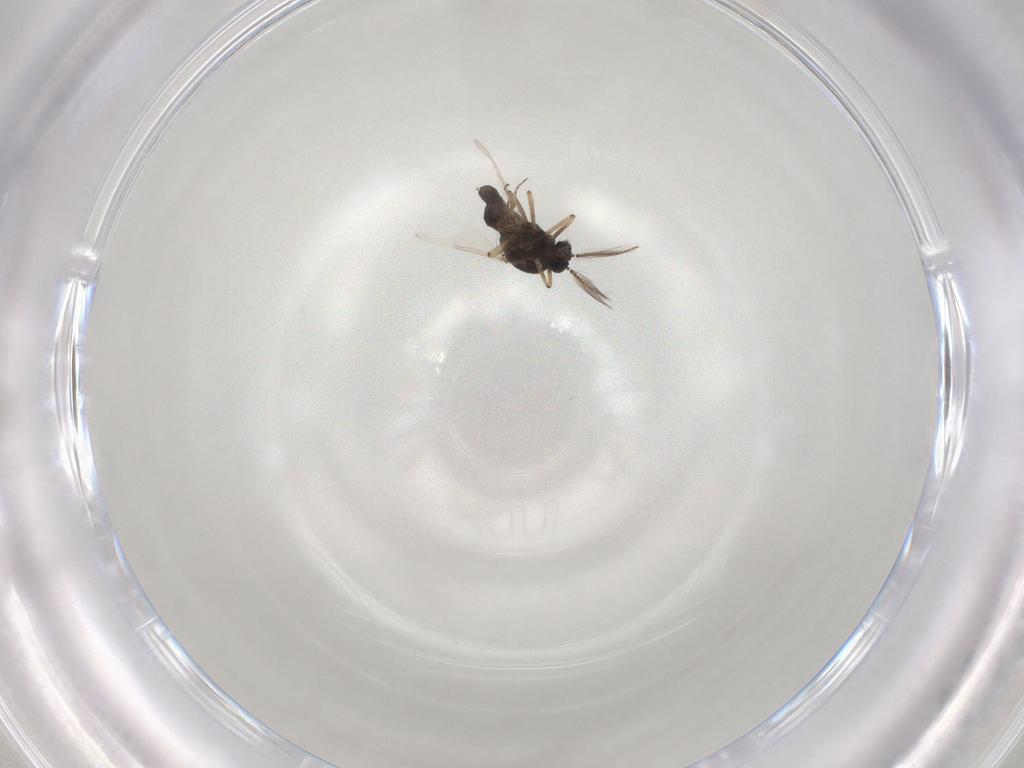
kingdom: Animalia
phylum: Arthropoda
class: Insecta
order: Diptera
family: Ceratopogonidae
